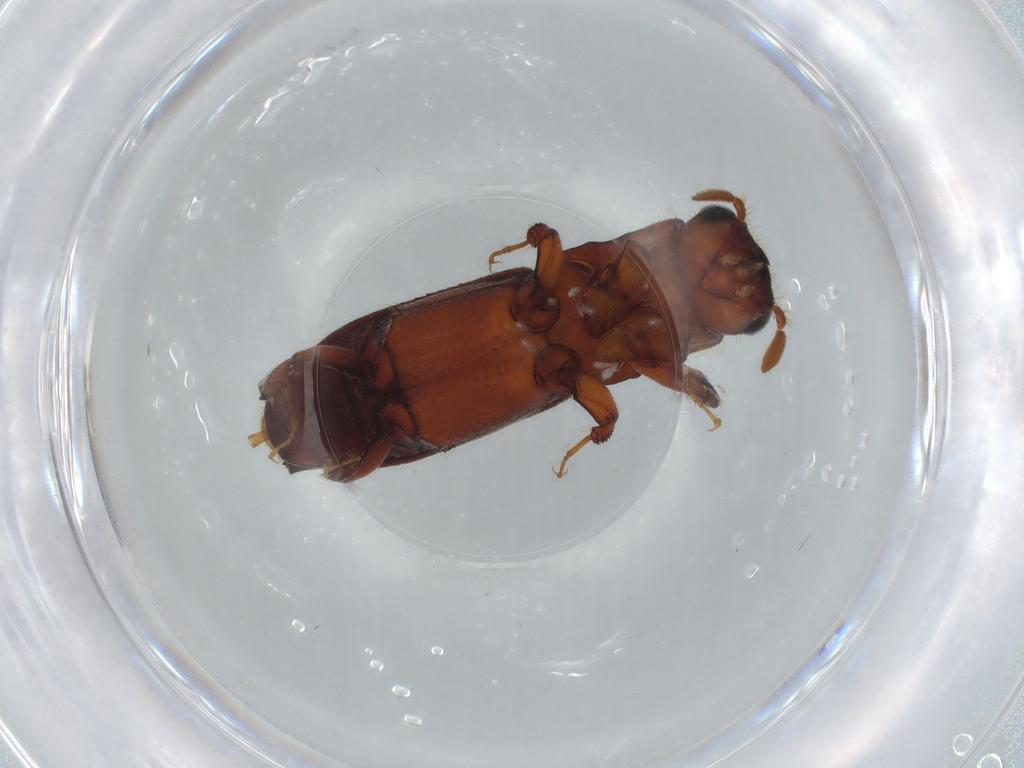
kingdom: Animalia
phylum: Arthropoda
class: Insecta
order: Coleoptera
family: Curculionidae
